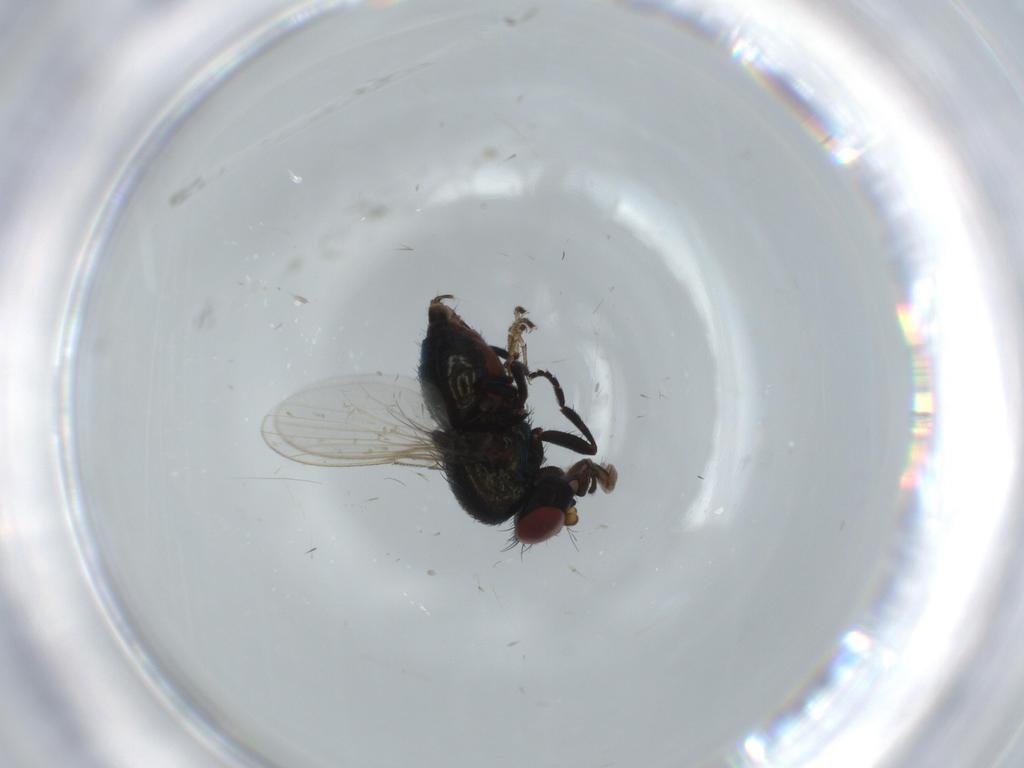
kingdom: Animalia
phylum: Arthropoda
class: Insecta
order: Diptera
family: Drosophilidae
